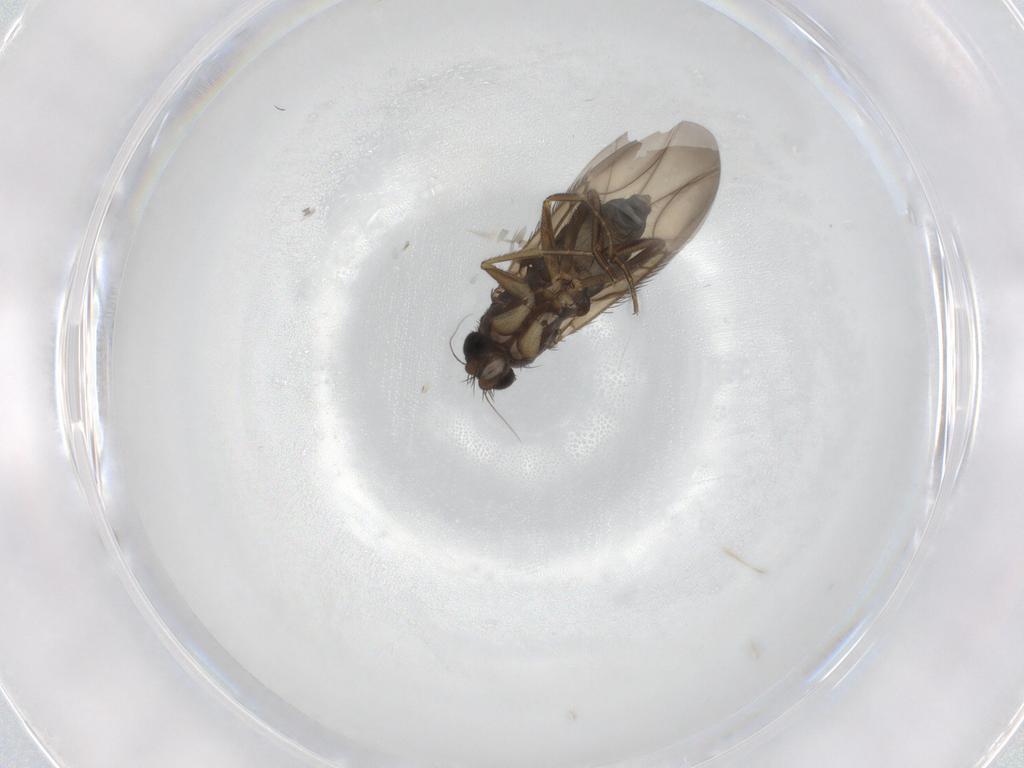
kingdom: Animalia
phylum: Arthropoda
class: Insecta
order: Diptera
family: Phoridae
